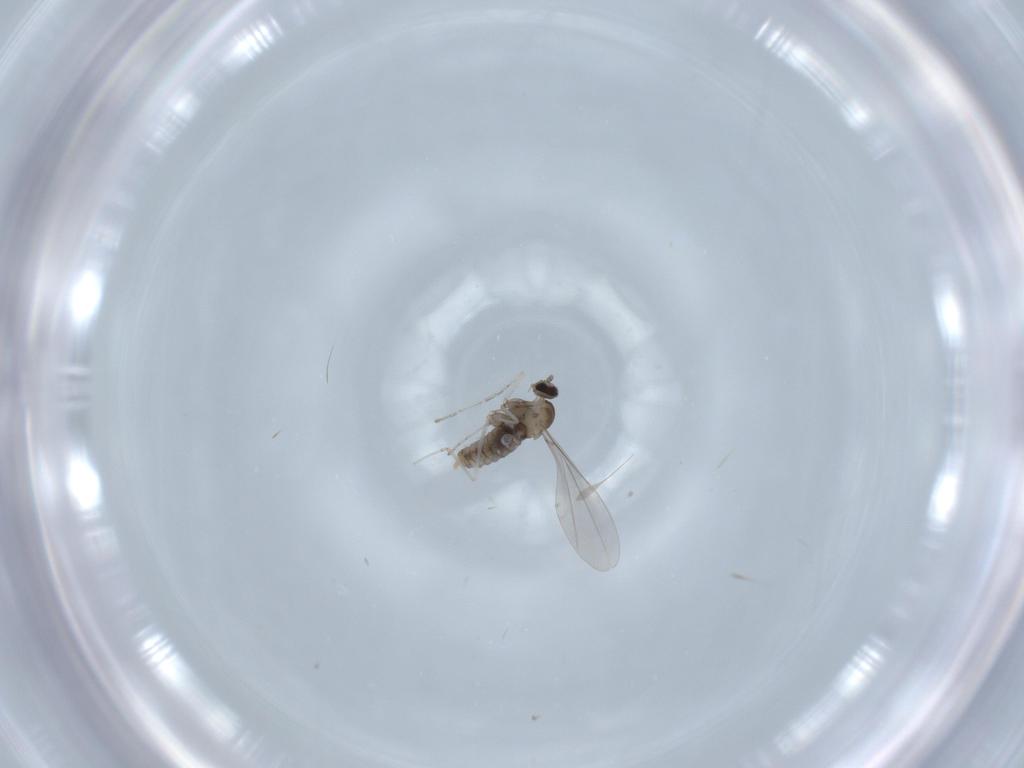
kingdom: Animalia
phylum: Arthropoda
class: Insecta
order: Diptera
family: Cecidomyiidae
